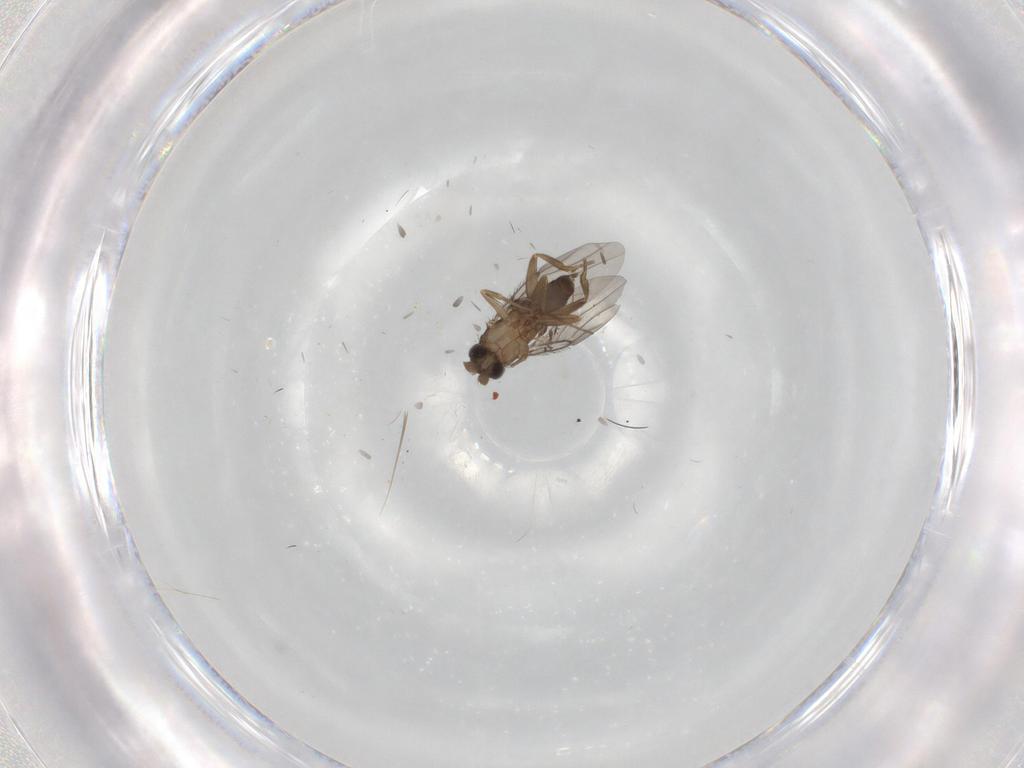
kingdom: Animalia
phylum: Arthropoda
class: Insecta
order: Diptera
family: Phoridae
